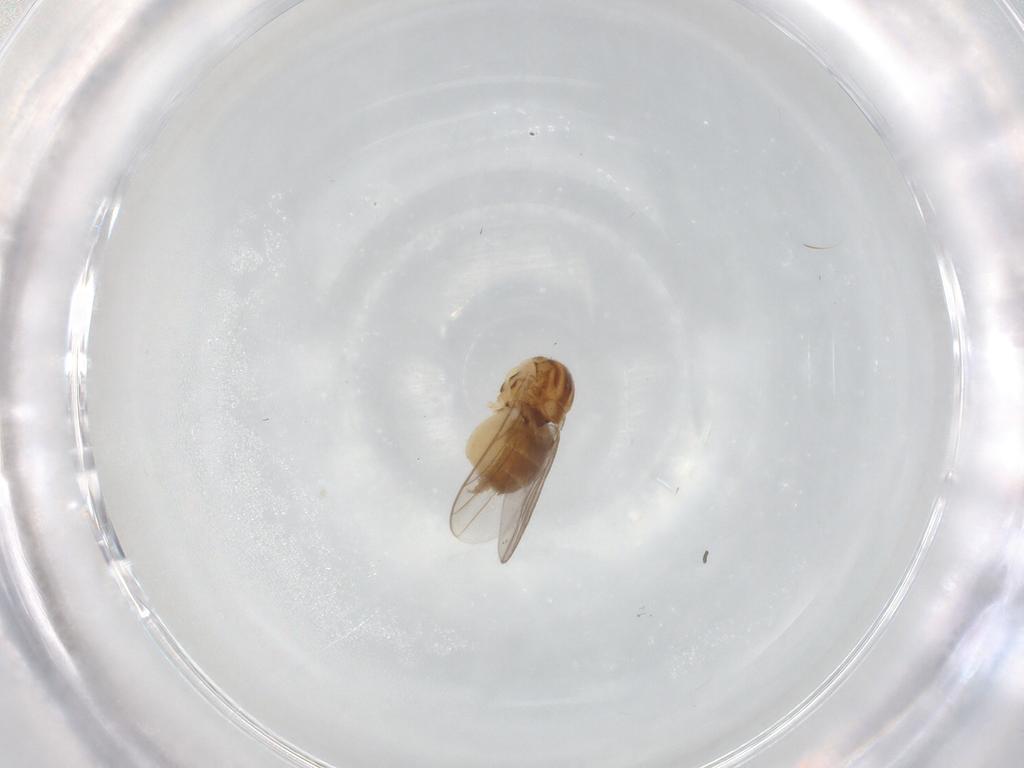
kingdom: Animalia
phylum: Arthropoda
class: Insecta
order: Diptera
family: Chloropidae
